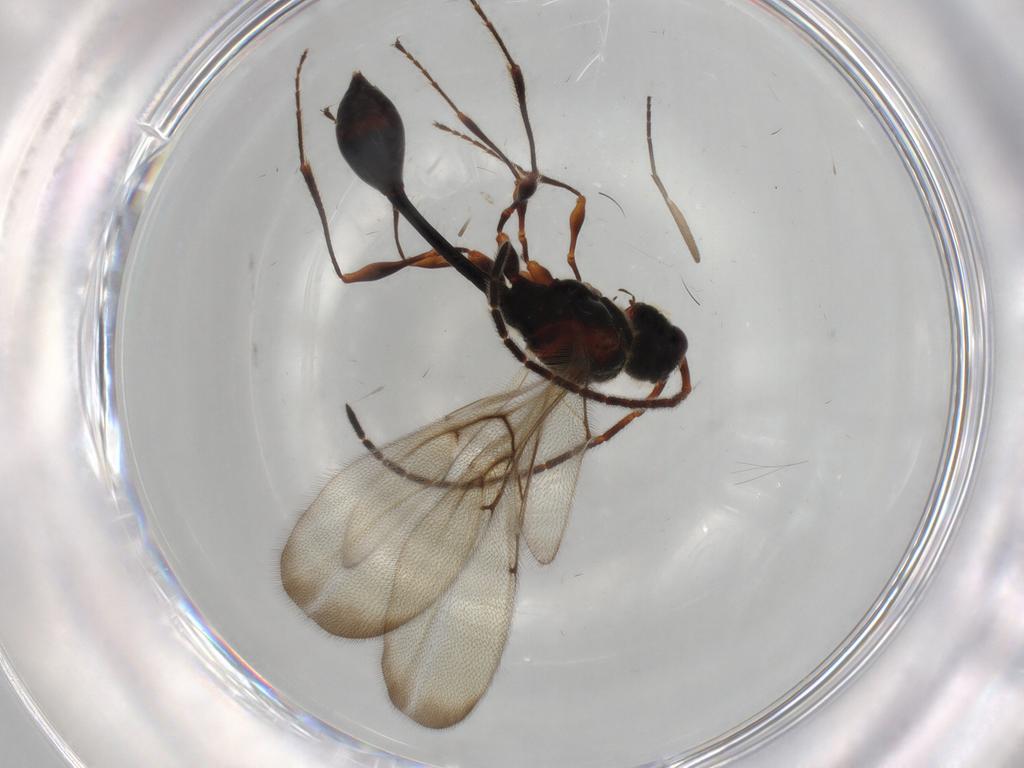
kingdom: Animalia
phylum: Arthropoda
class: Insecta
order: Hymenoptera
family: Diapriidae
